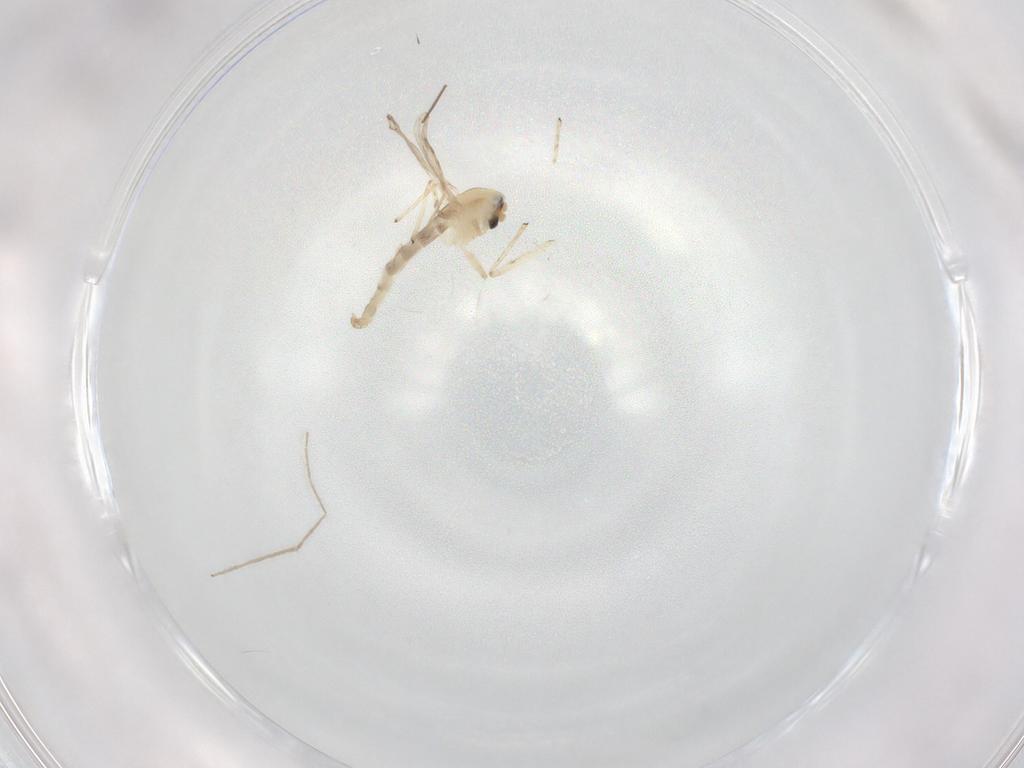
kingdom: Animalia
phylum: Arthropoda
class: Insecta
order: Diptera
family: Chironomidae
